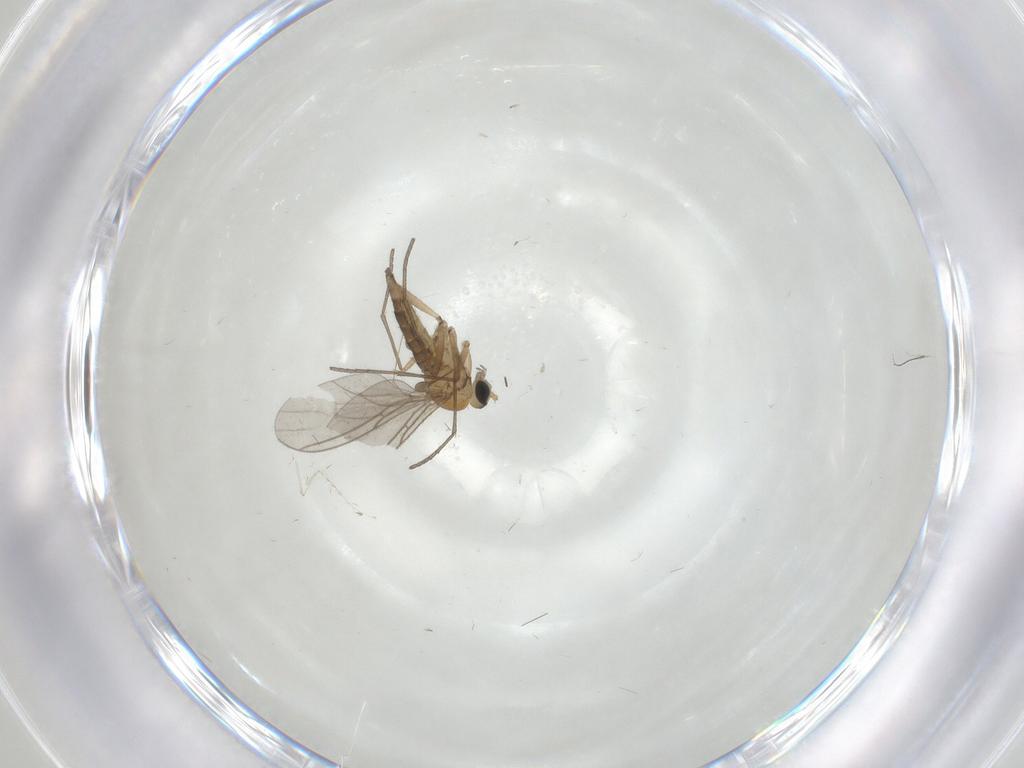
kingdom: Animalia
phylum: Arthropoda
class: Insecta
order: Diptera
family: Sciaridae
